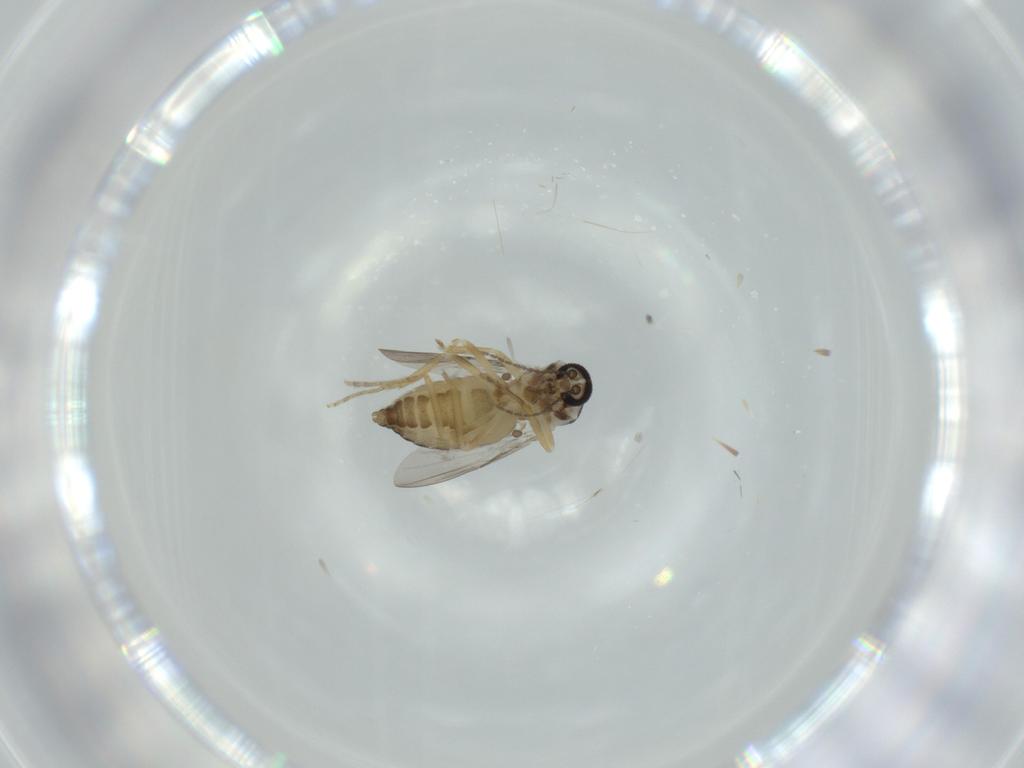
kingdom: Animalia
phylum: Arthropoda
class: Insecta
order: Diptera
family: Ceratopogonidae
